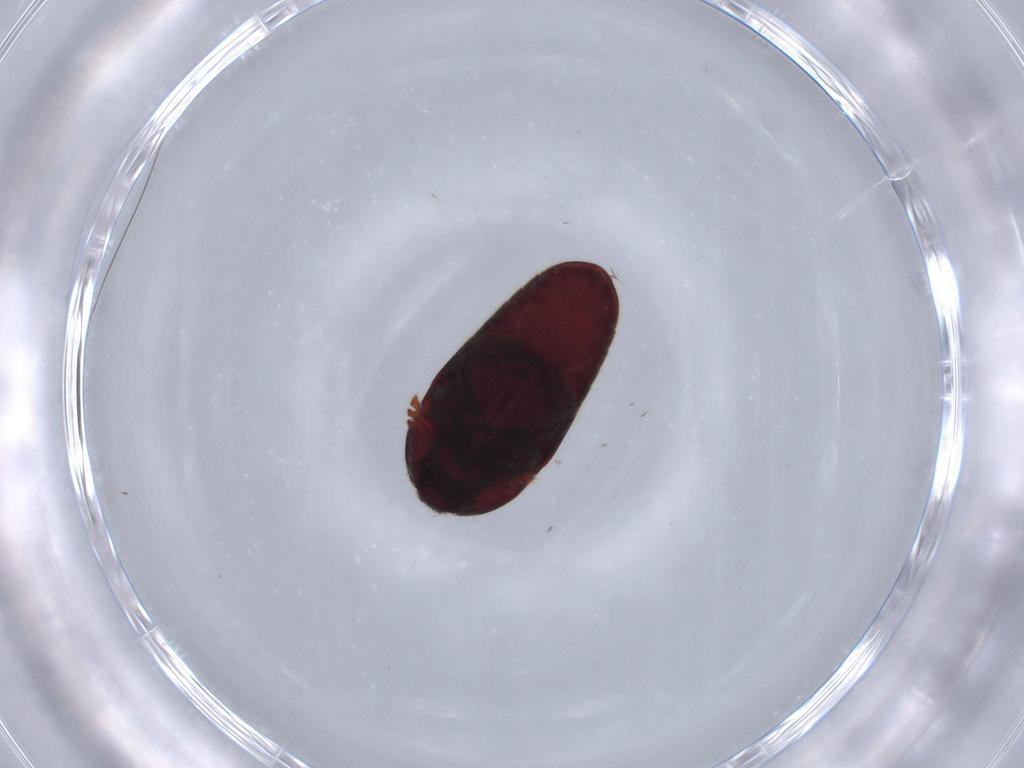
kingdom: Animalia
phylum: Arthropoda
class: Insecta
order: Coleoptera
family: Throscidae
